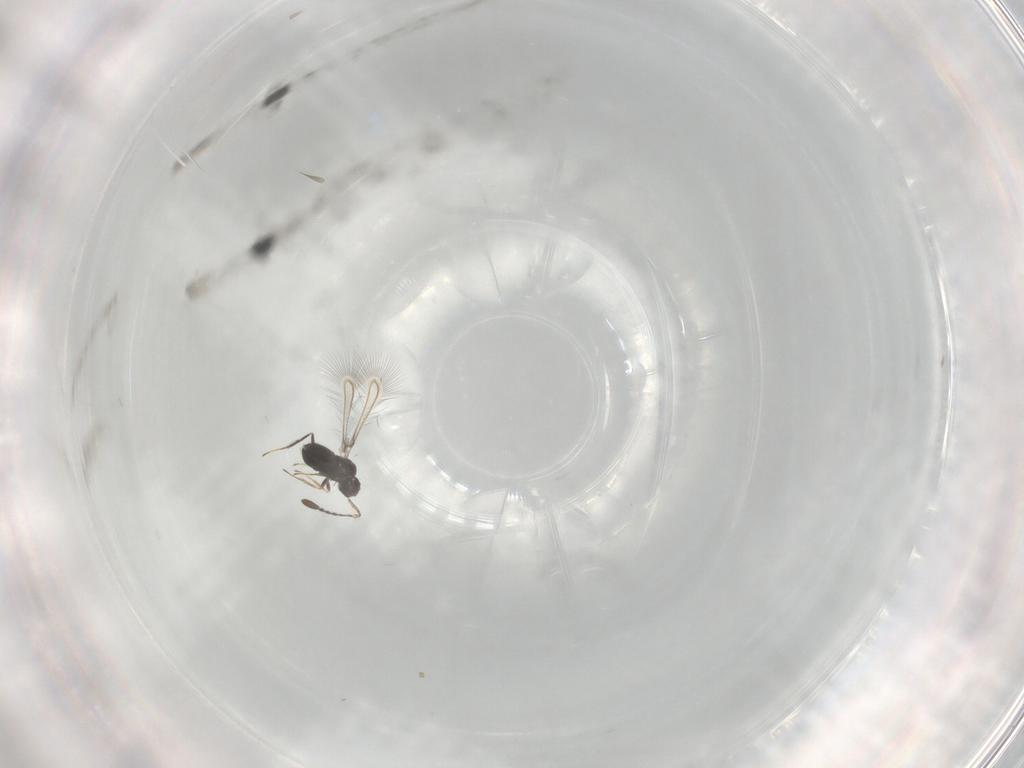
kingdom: Animalia
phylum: Arthropoda
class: Insecta
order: Hymenoptera
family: Mymaridae
